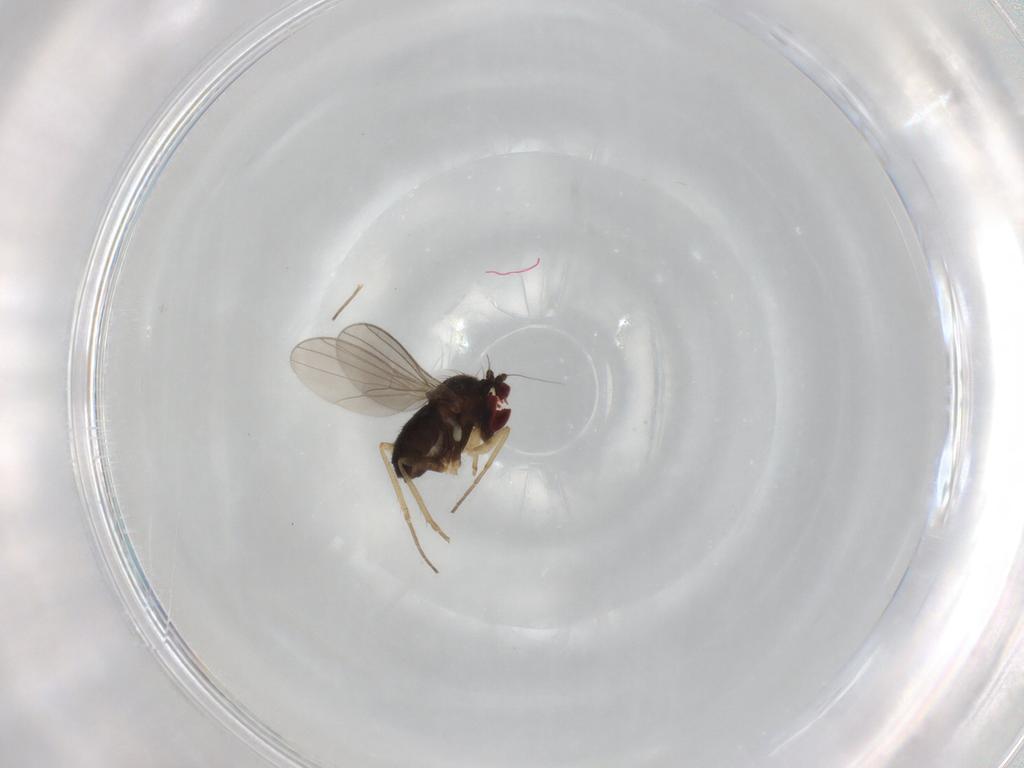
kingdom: Animalia
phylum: Arthropoda
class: Insecta
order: Diptera
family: Dolichopodidae
